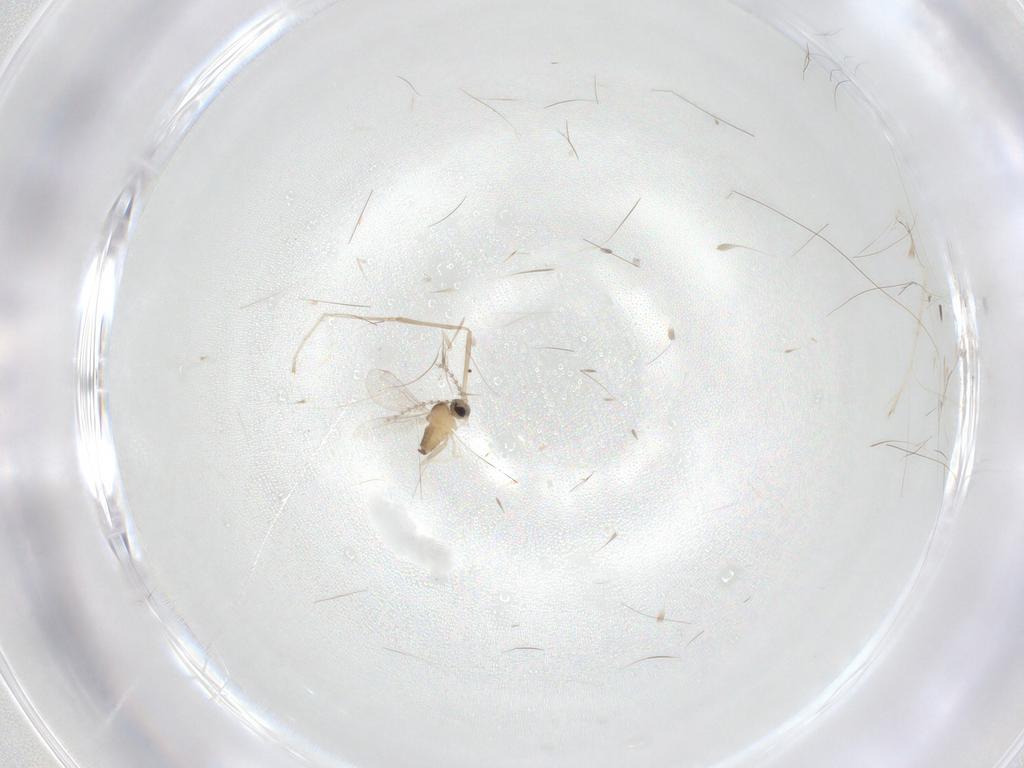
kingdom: Animalia
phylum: Arthropoda
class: Insecta
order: Diptera
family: Cecidomyiidae
